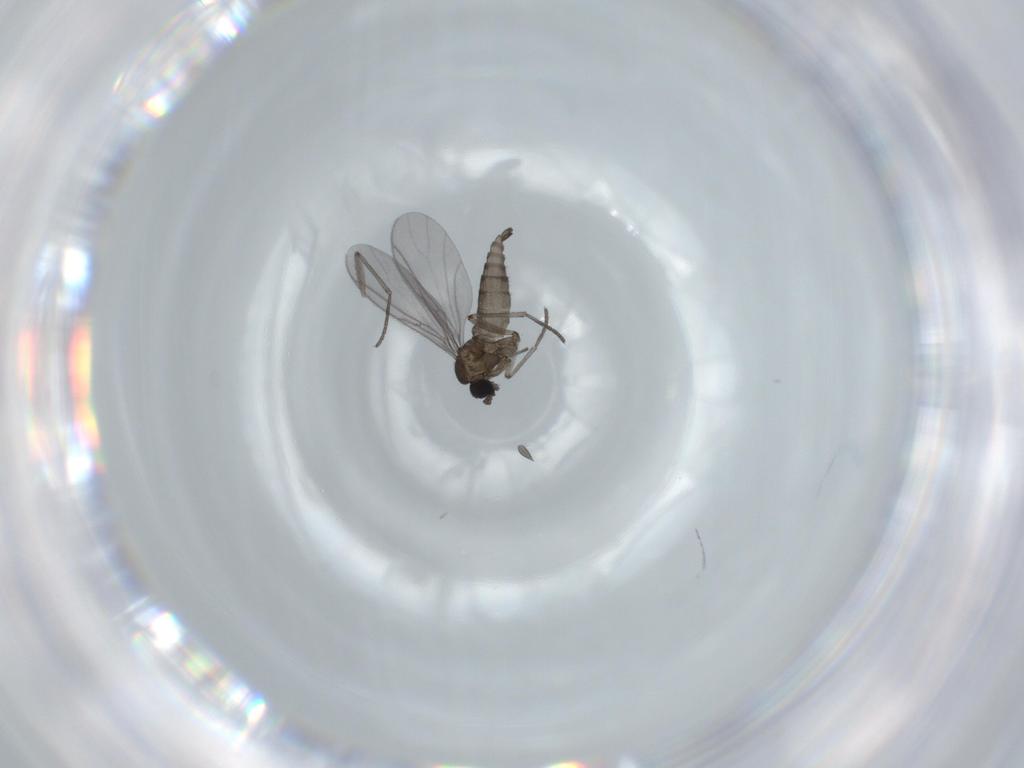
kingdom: Animalia
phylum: Arthropoda
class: Insecta
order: Diptera
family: Sciaridae
